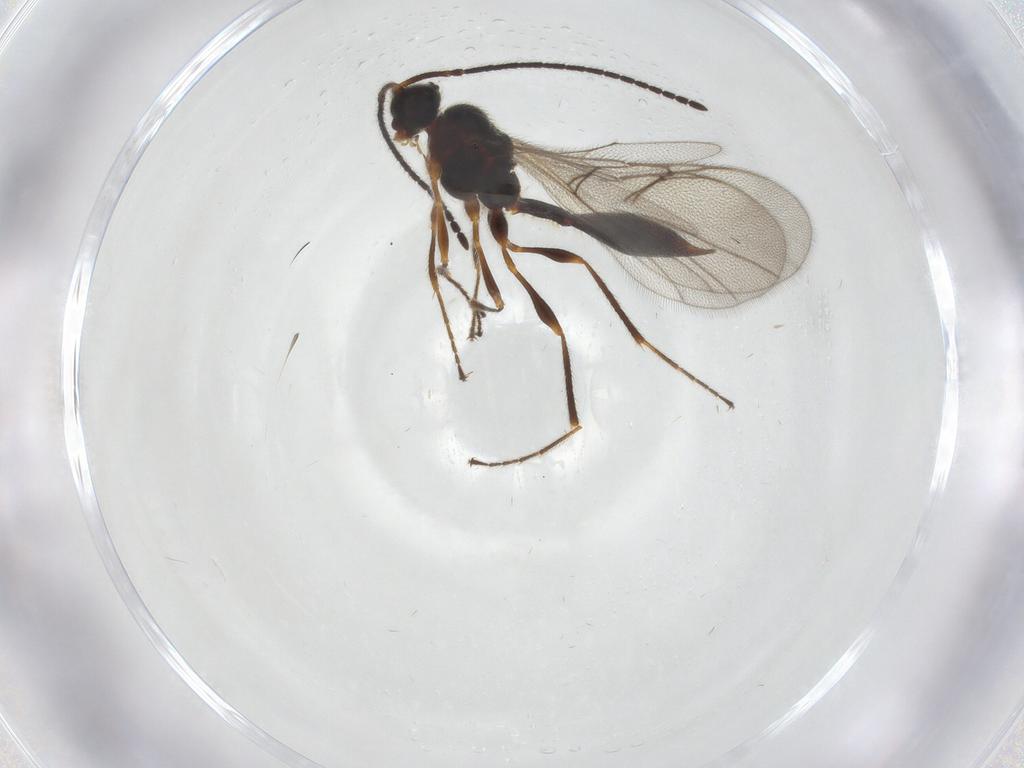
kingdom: Animalia
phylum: Arthropoda
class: Insecta
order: Hymenoptera
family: Diapriidae
